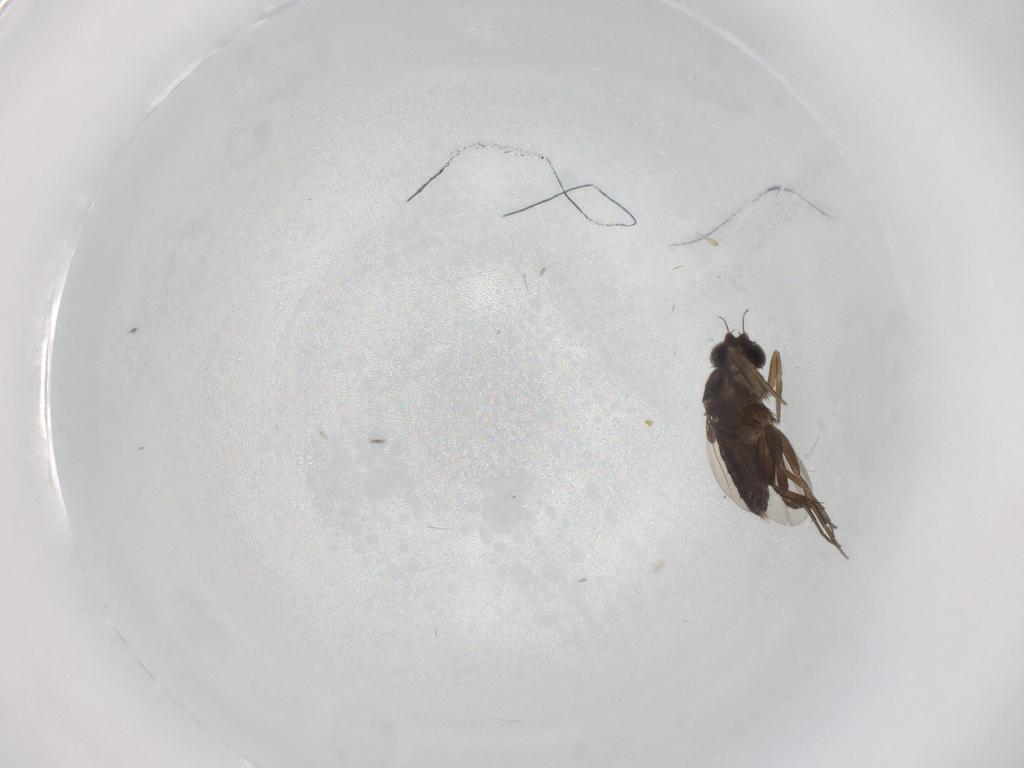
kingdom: Animalia
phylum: Arthropoda
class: Insecta
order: Diptera
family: Phoridae
